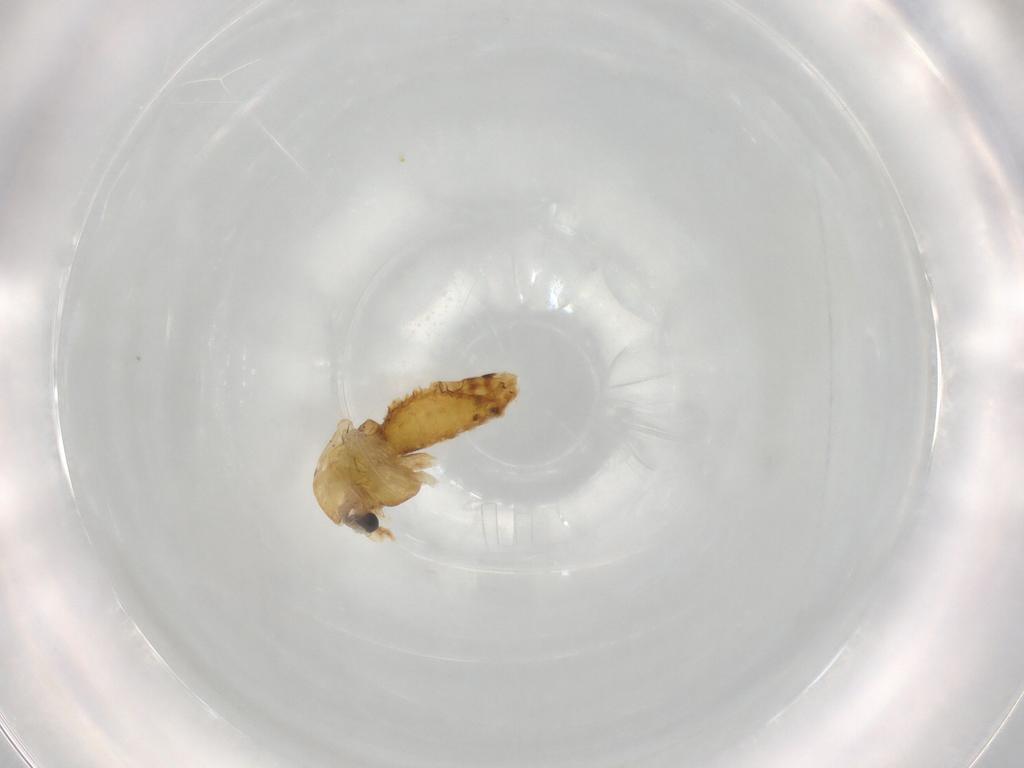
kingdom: Animalia
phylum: Arthropoda
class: Insecta
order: Diptera
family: Chironomidae
